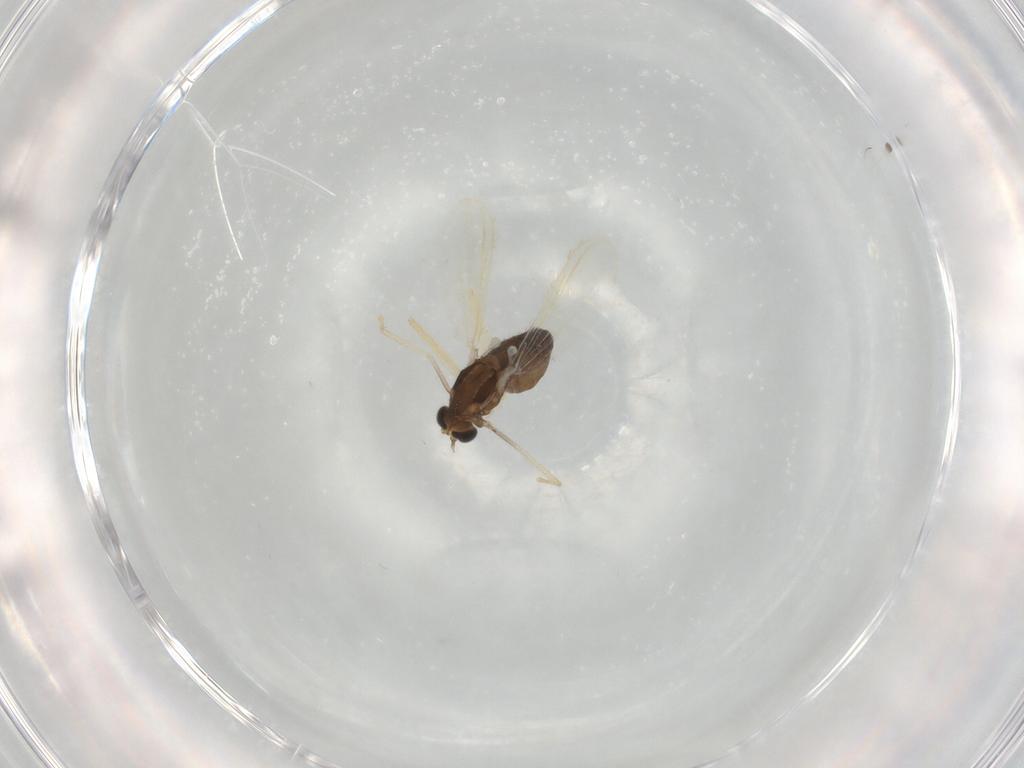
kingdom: Animalia
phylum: Arthropoda
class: Insecta
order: Diptera
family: Chironomidae
